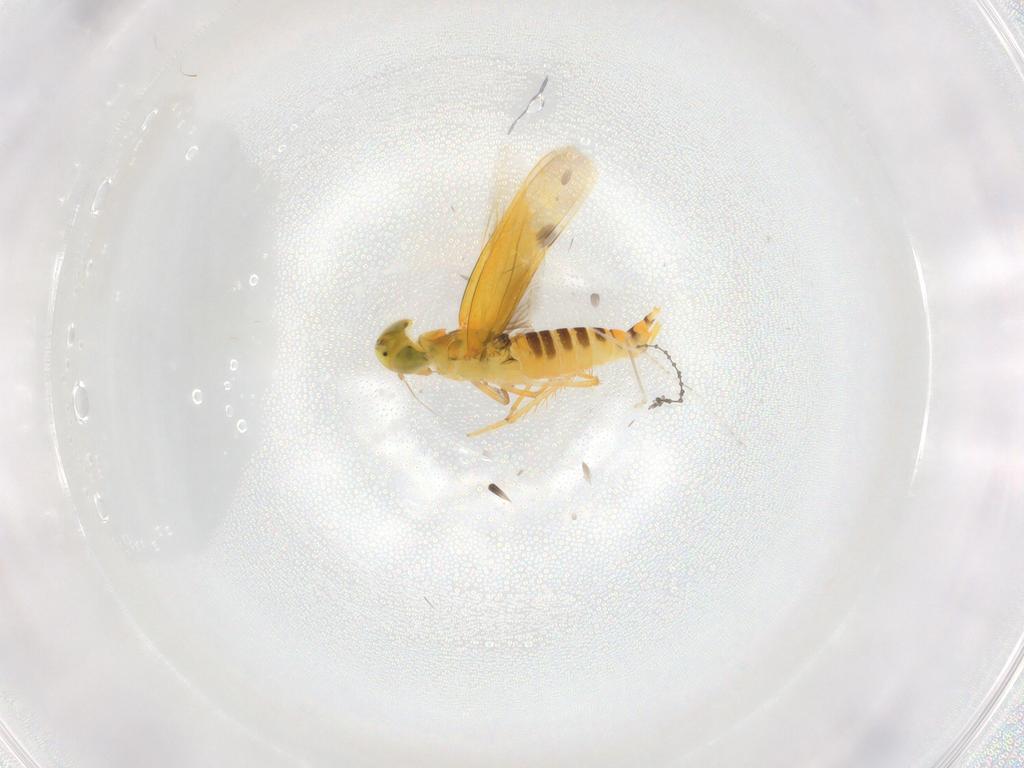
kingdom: Animalia
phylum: Arthropoda
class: Insecta
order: Hemiptera
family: Cicadellidae
